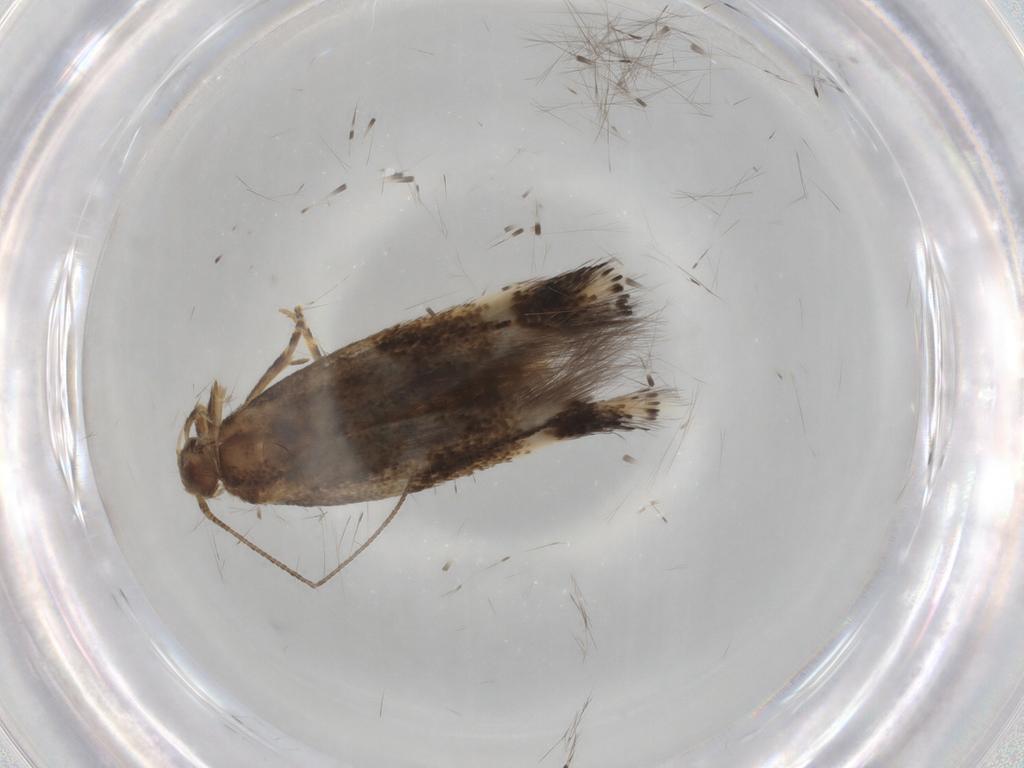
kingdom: Animalia
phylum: Arthropoda
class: Insecta
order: Lepidoptera
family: Elachistidae
